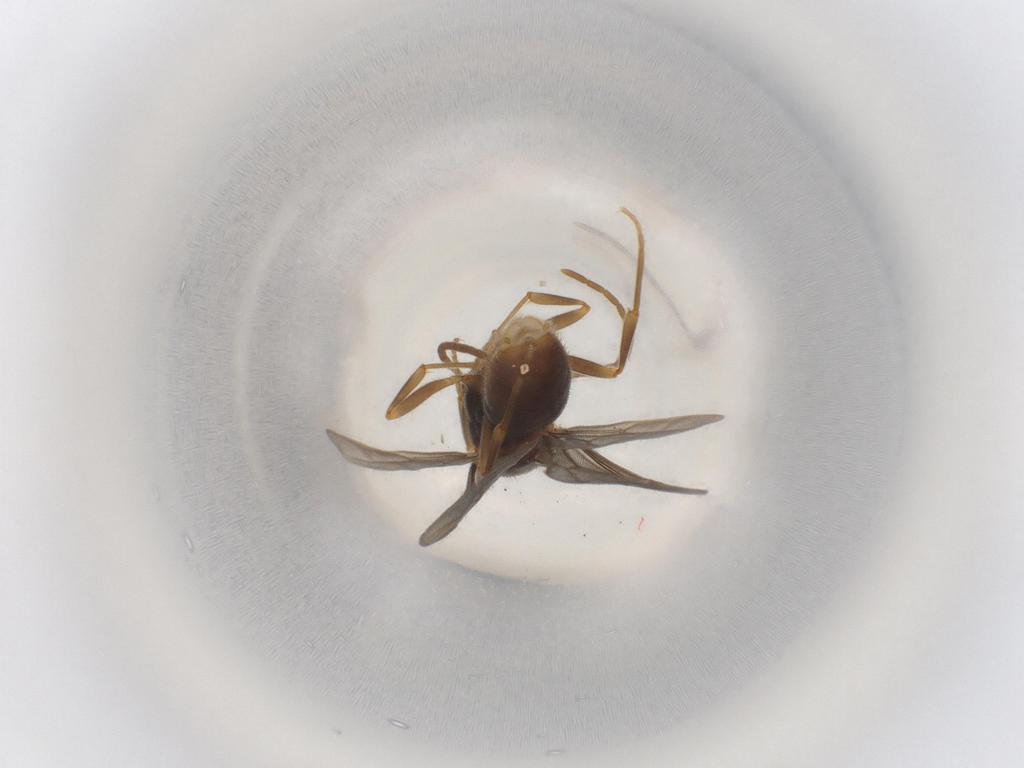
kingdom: Animalia
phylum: Arthropoda
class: Insecta
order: Hymenoptera
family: Formicidae
